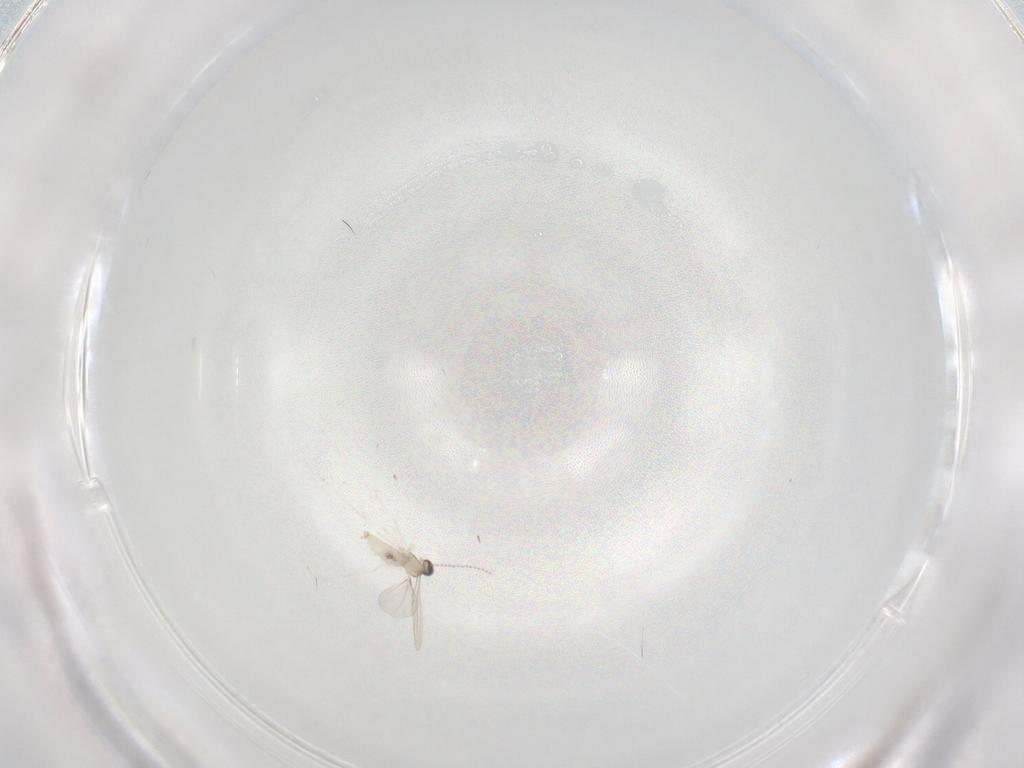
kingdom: Animalia
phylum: Arthropoda
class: Insecta
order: Diptera
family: Cecidomyiidae
